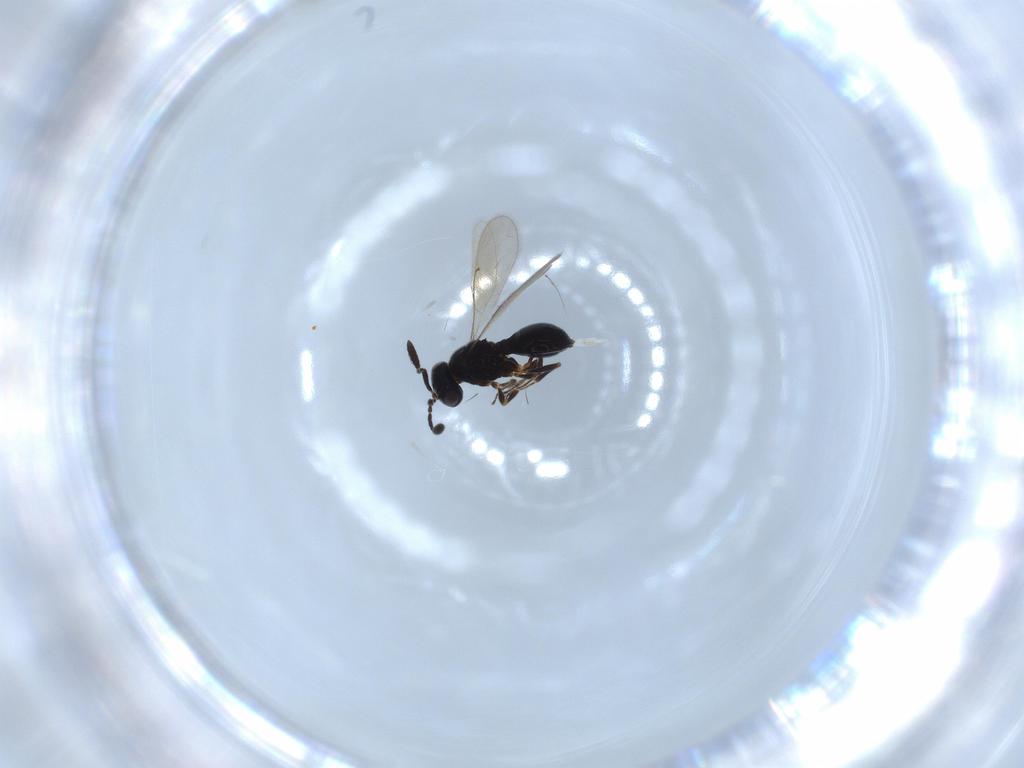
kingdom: Animalia
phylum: Arthropoda
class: Insecta
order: Hymenoptera
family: Scelionidae
